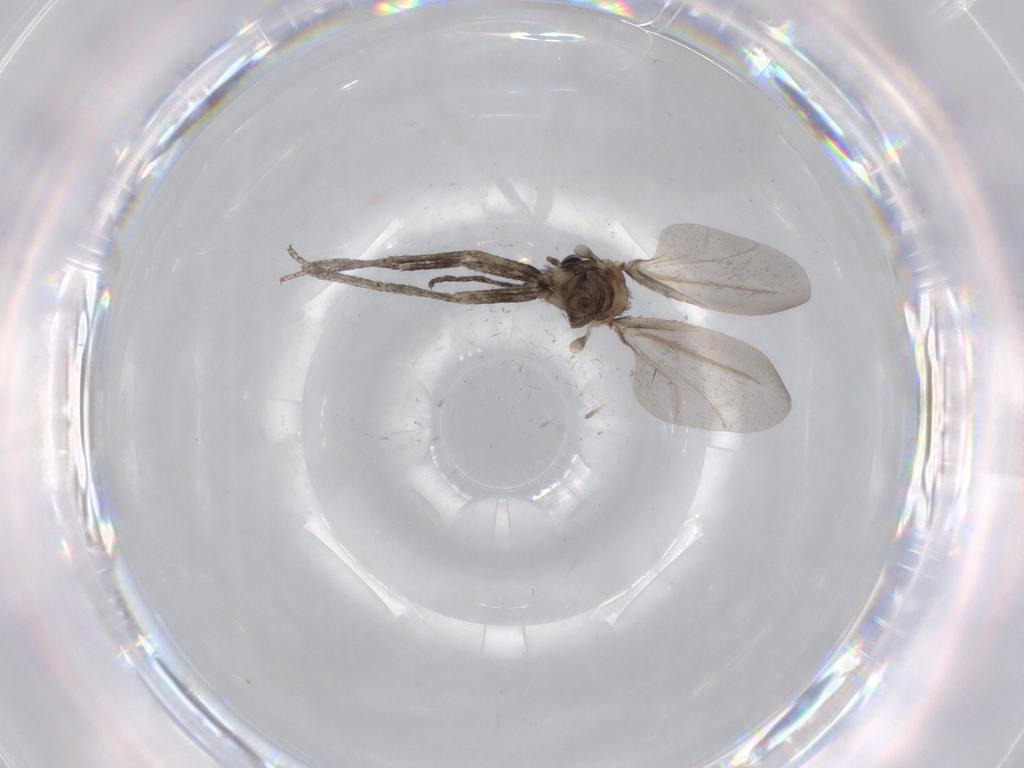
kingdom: Animalia
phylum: Arthropoda
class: Insecta
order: Diptera
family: Cecidomyiidae
